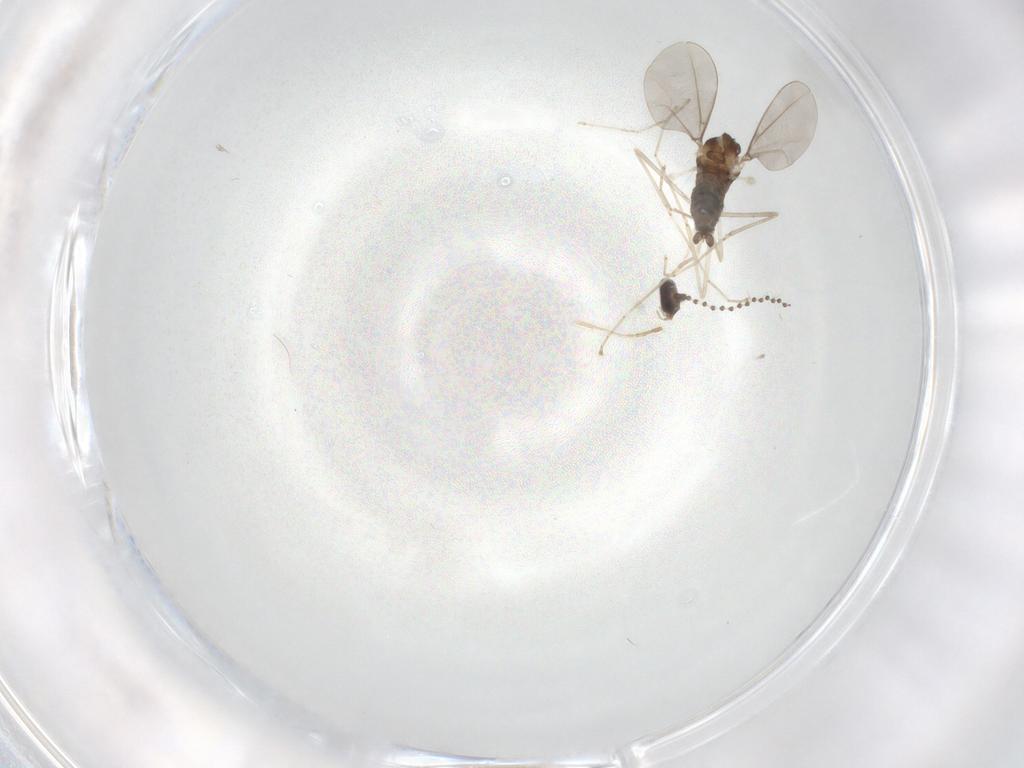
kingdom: Animalia
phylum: Arthropoda
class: Insecta
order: Diptera
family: Cecidomyiidae
